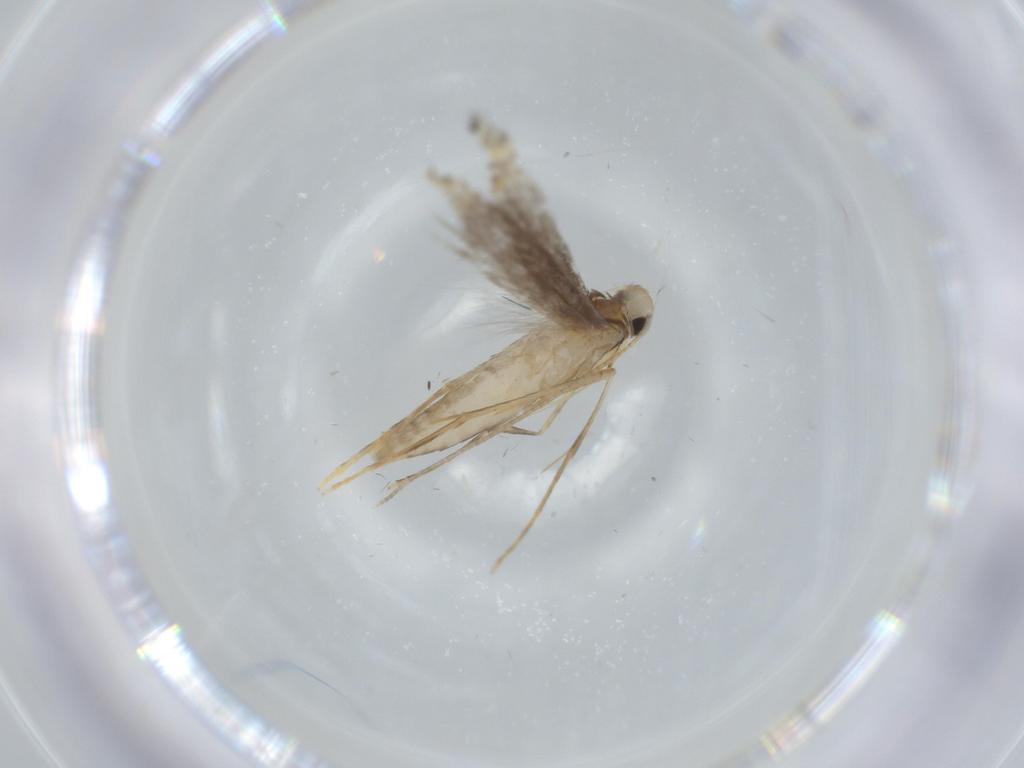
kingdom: Animalia
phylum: Arthropoda
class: Insecta
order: Lepidoptera
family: Gracillariidae
